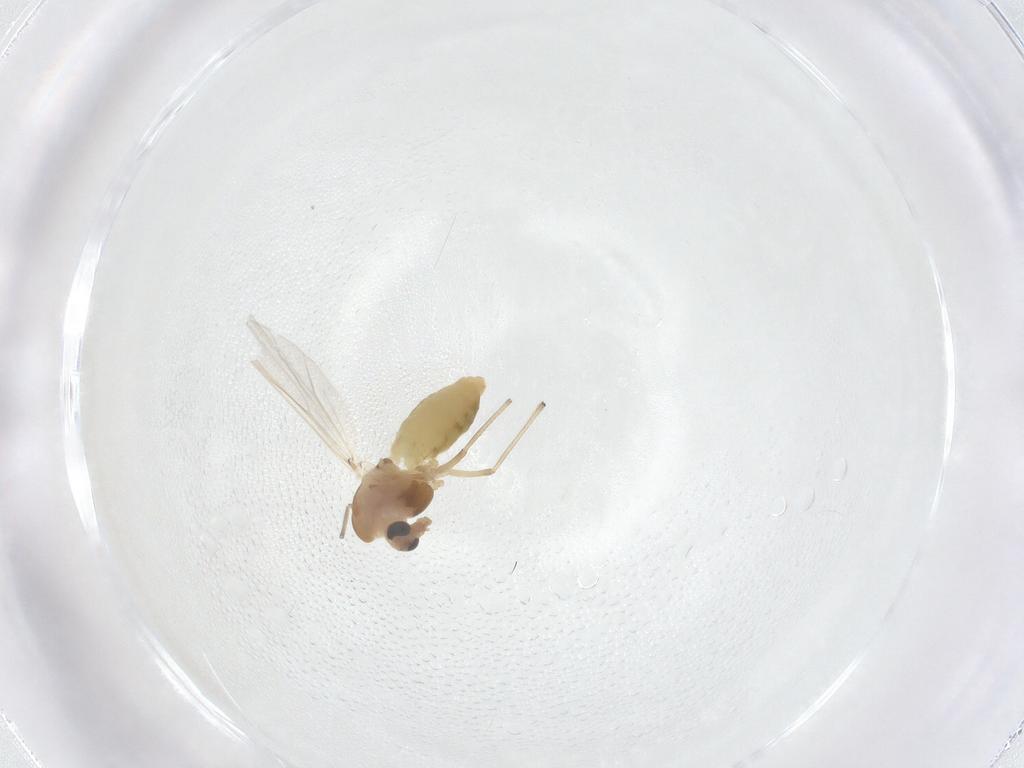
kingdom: Animalia
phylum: Arthropoda
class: Insecta
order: Diptera
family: Chironomidae
